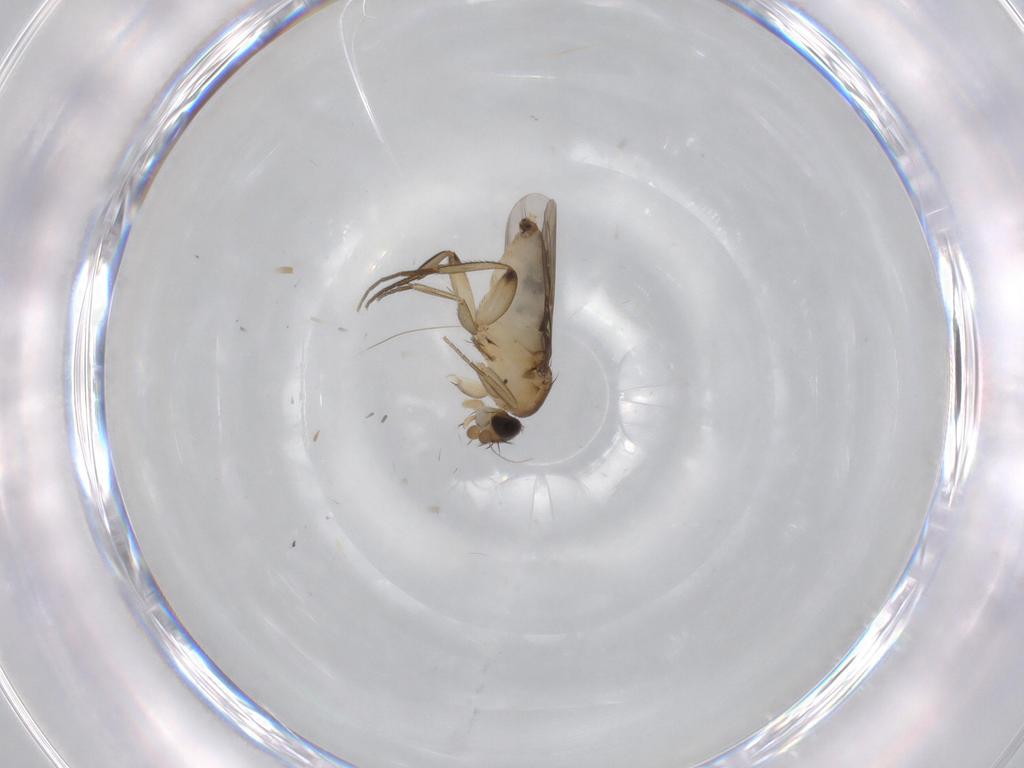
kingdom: Animalia
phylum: Arthropoda
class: Insecta
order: Diptera
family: Phoridae
